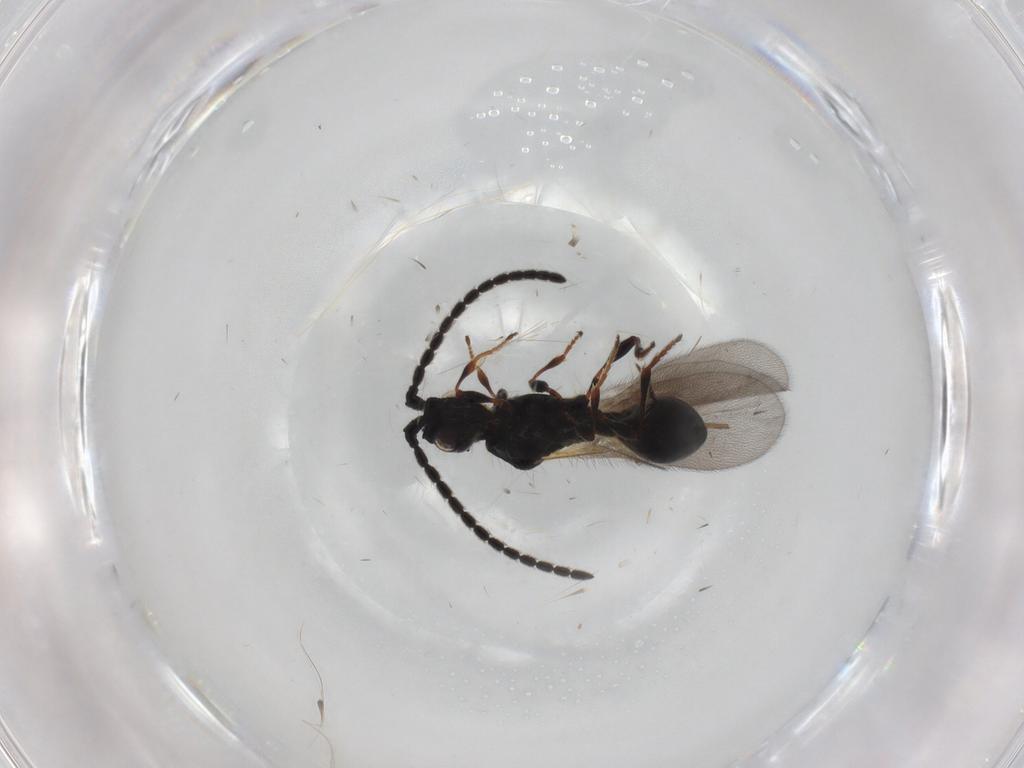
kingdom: Animalia
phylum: Arthropoda
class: Insecta
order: Hymenoptera
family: Diapriidae
